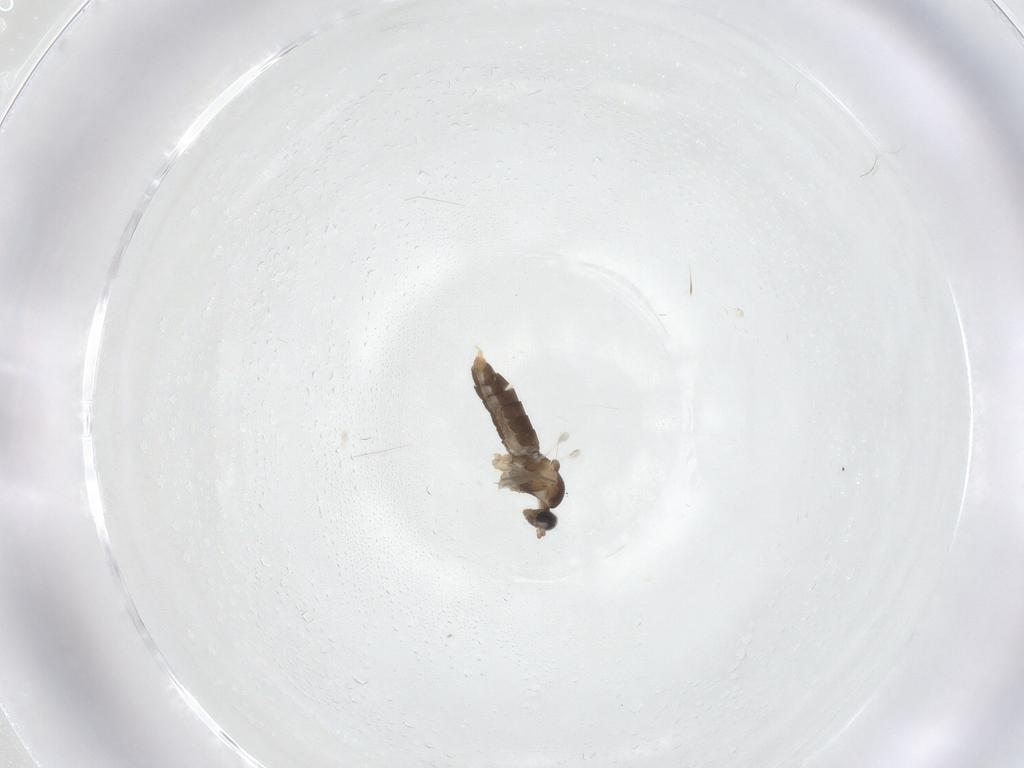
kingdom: Animalia
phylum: Arthropoda
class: Insecta
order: Diptera
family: Cecidomyiidae
